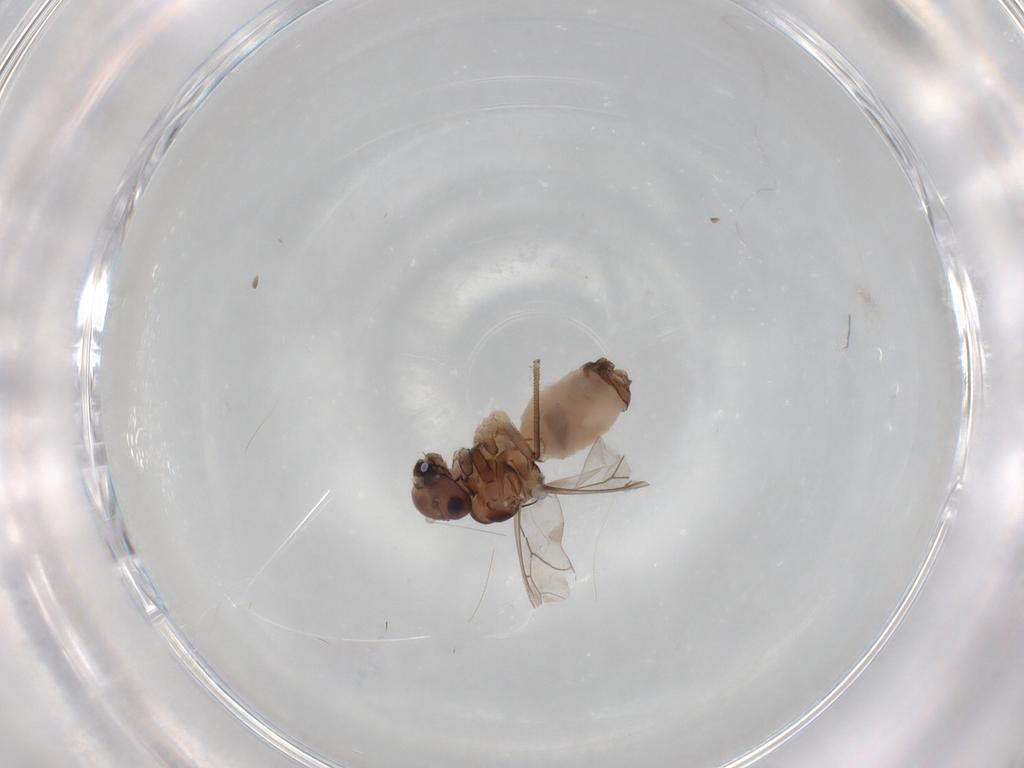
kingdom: Animalia
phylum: Arthropoda
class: Insecta
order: Psocodea
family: Peripsocidae
